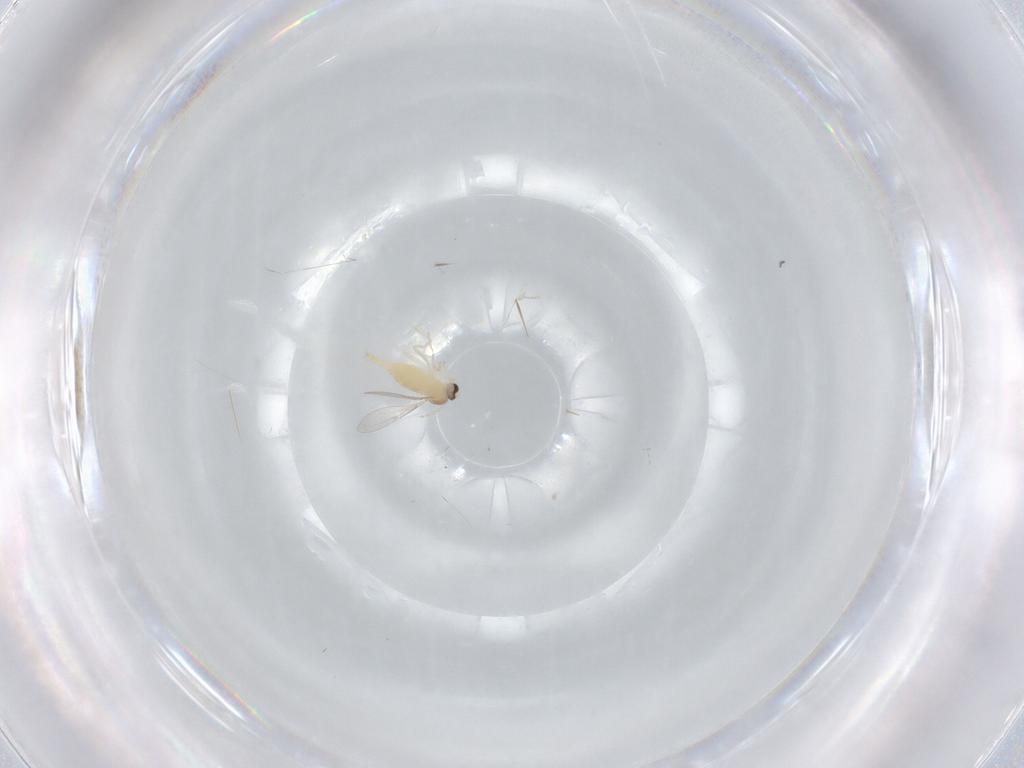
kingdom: Animalia
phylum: Arthropoda
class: Insecta
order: Diptera
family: Cecidomyiidae
